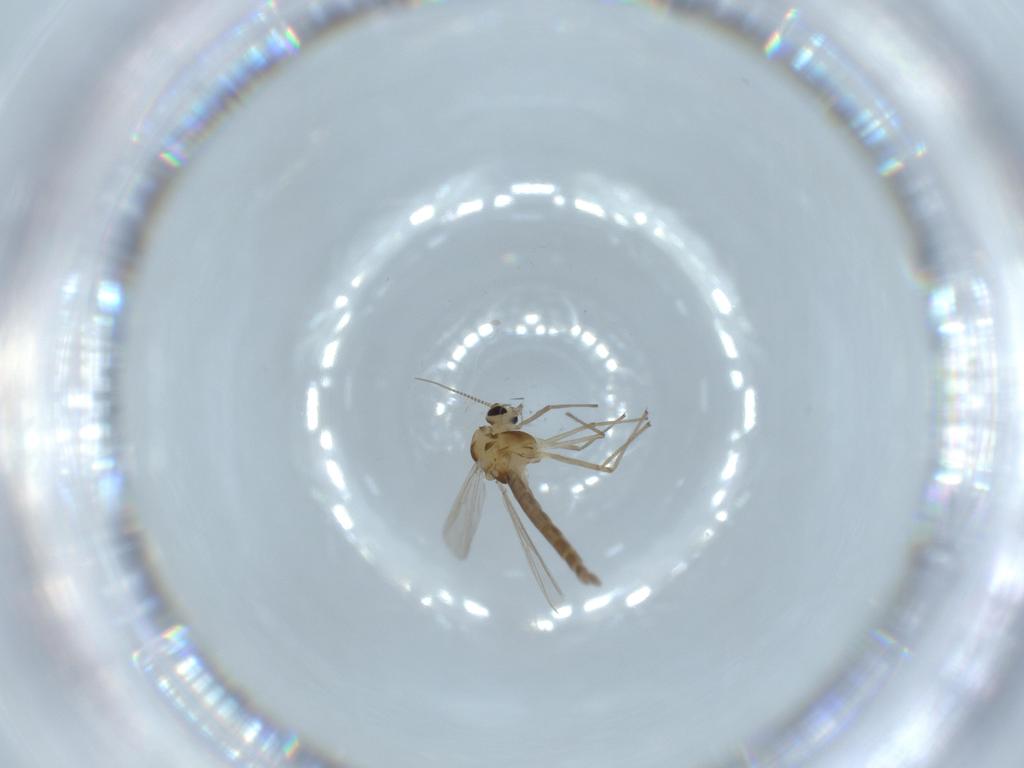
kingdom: Animalia
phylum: Arthropoda
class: Insecta
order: Diptera
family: Chironomidae
